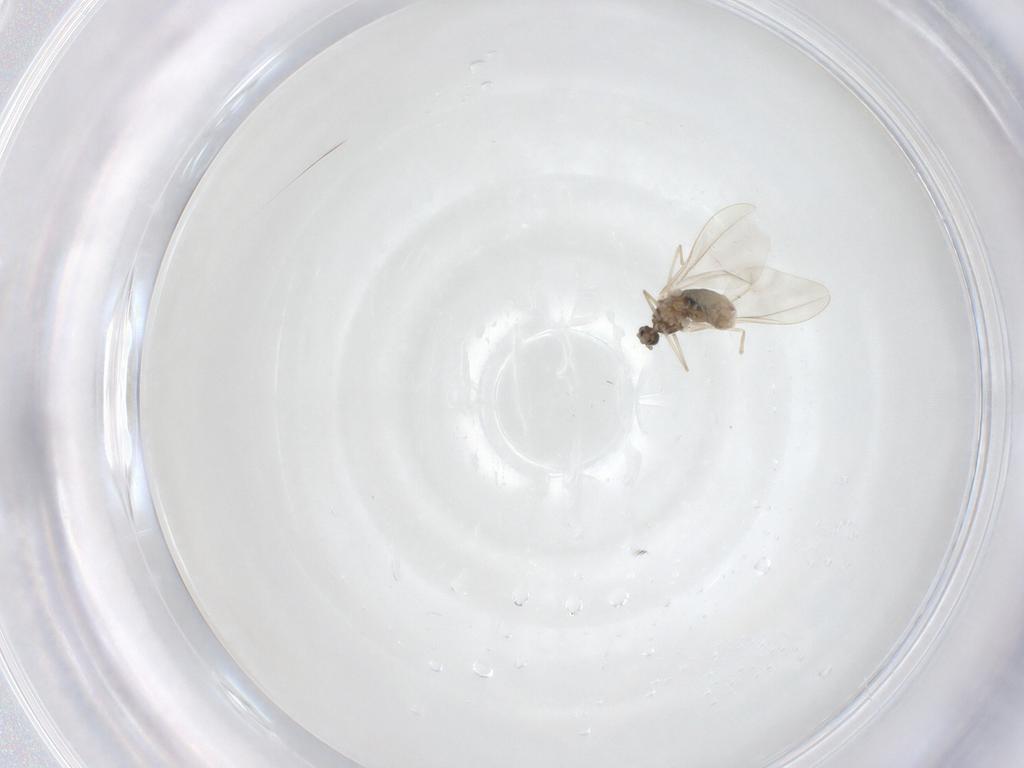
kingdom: Animalia
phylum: Arthropoda
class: Insecta
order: Diptera
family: Cecidomyiidae
